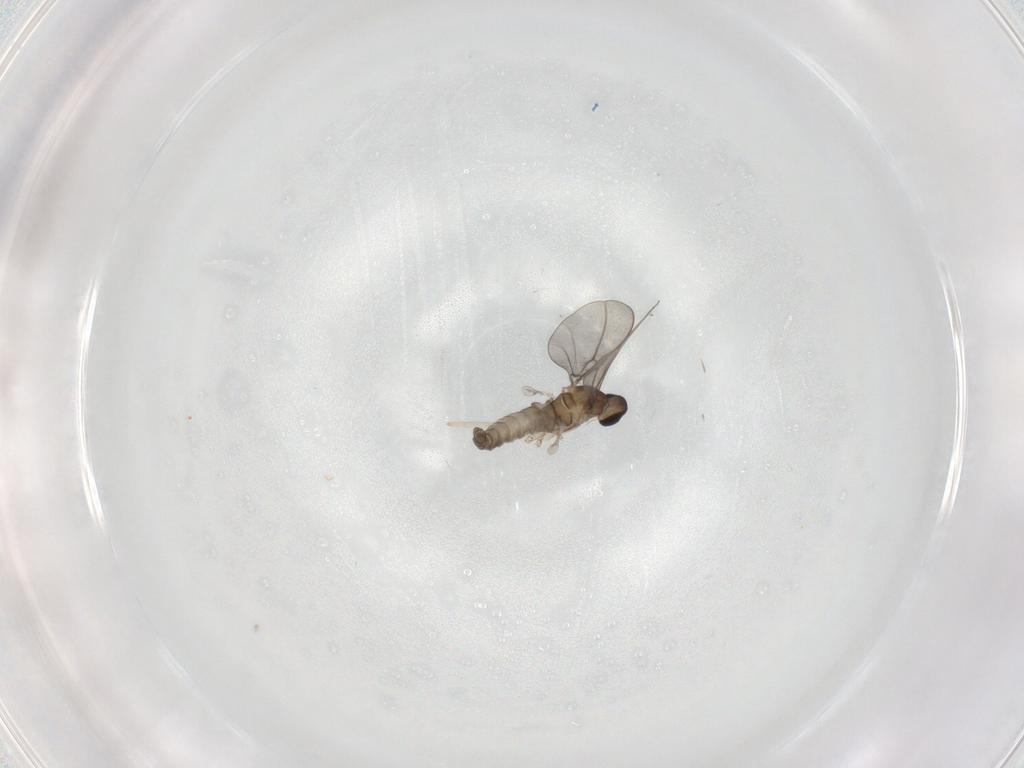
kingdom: Animalia
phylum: Arthropoda
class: Insecta
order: Diptera
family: Cecidomyiidae
